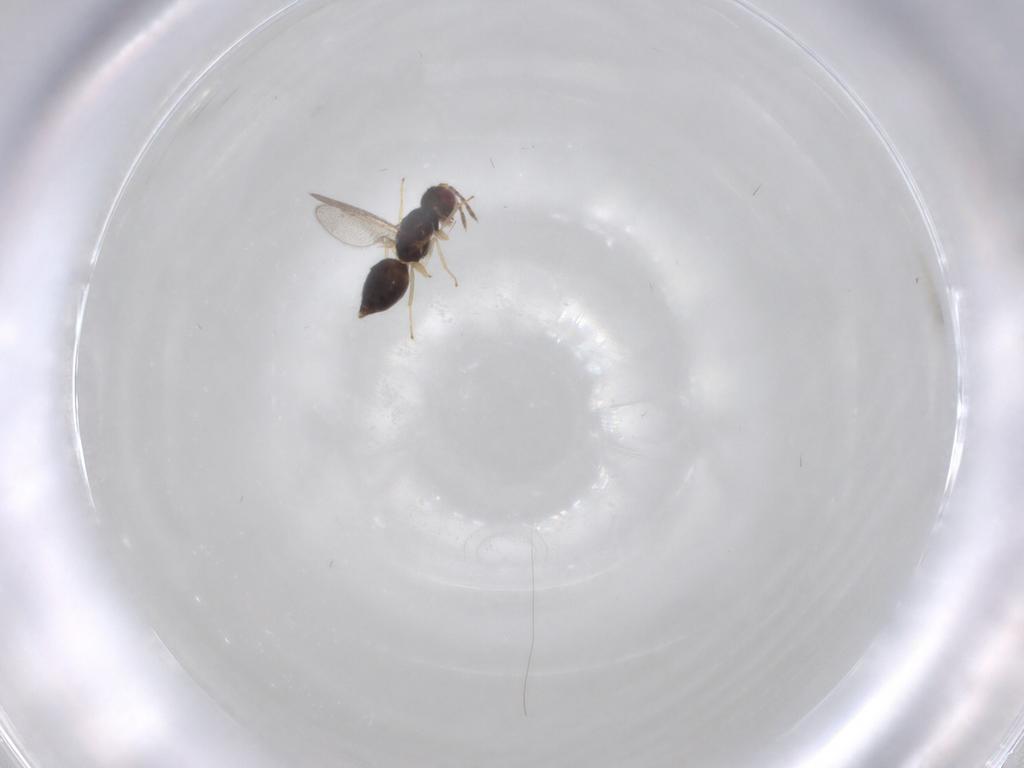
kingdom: Animalia
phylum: Arthropoda
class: Insecta
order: Hymenoptera
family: Eulophidae
